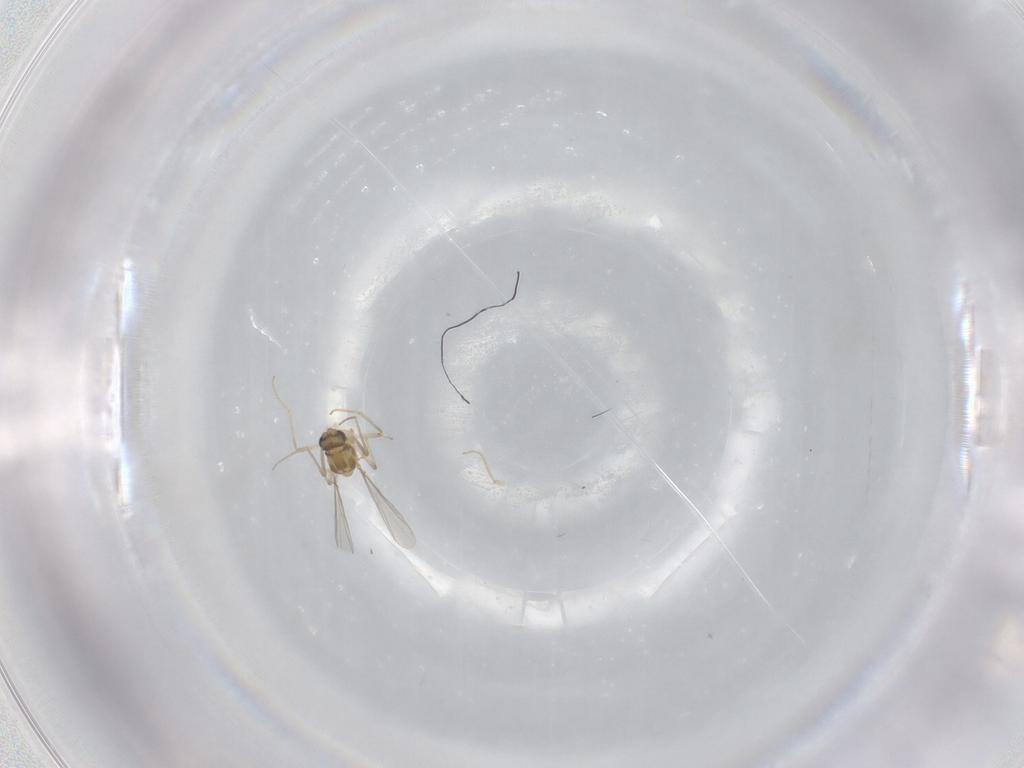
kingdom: Animalia
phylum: Arthropoda
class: Insecta
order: Diptera
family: Chironomidae
